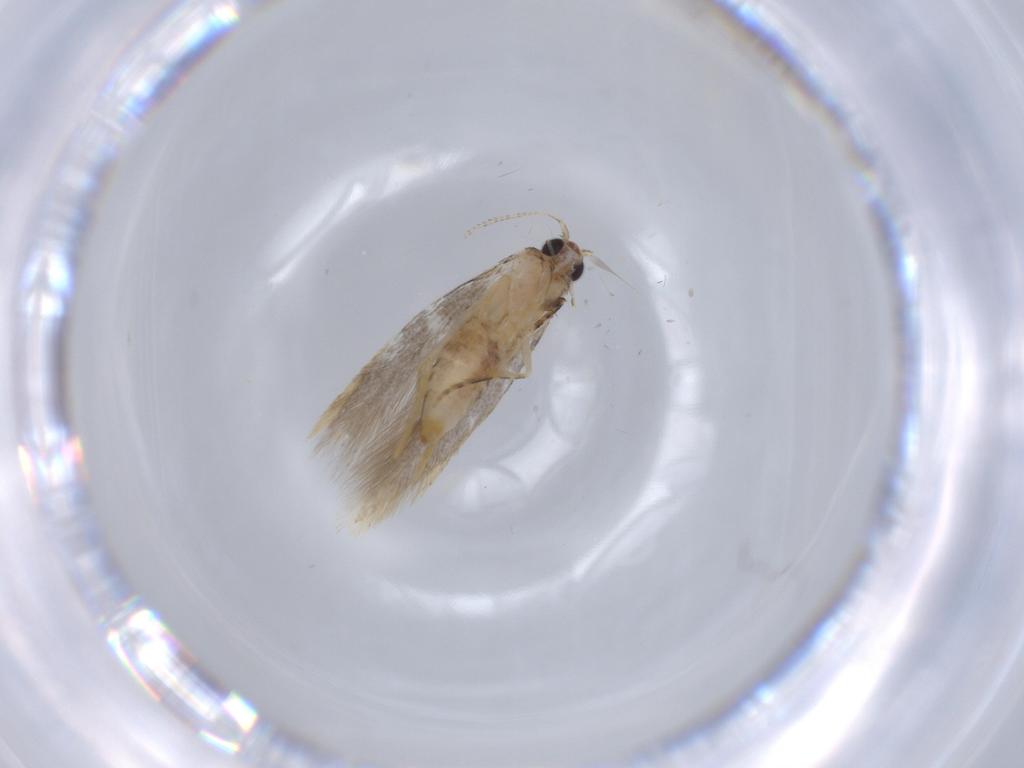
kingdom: Animalia
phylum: Arthropoda
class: Insecta
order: Lepidoptera
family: Tineidae
